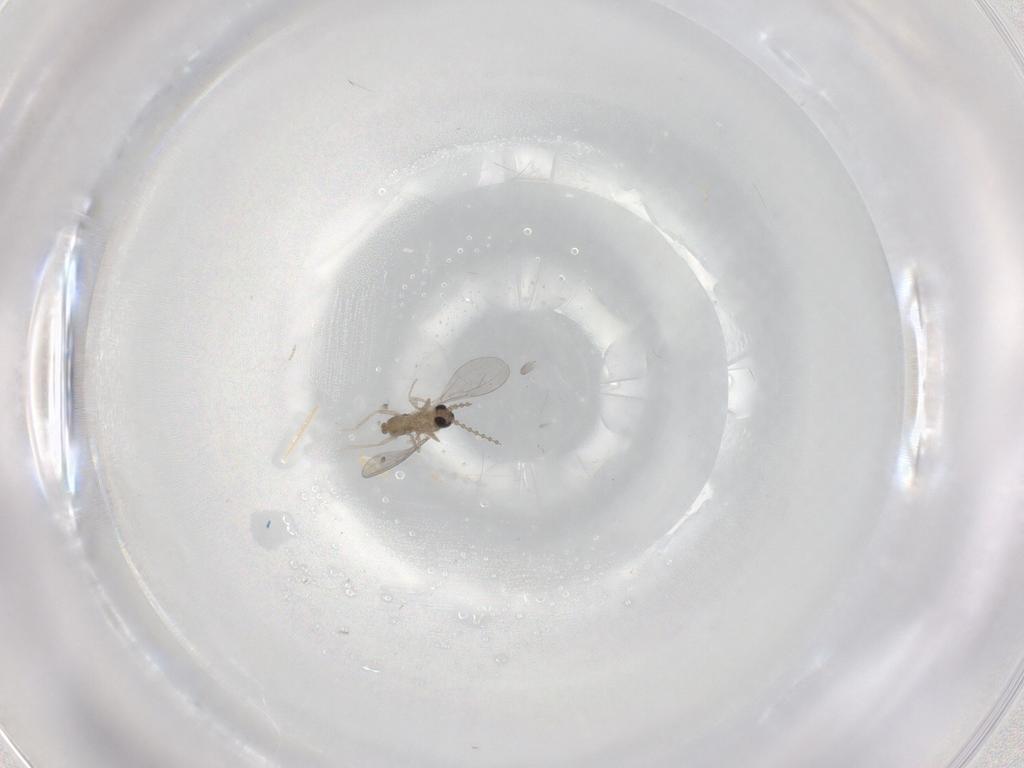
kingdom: Animalia
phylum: Arthropoda
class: Insecta
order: Diptera
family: Cecidomyiidae
